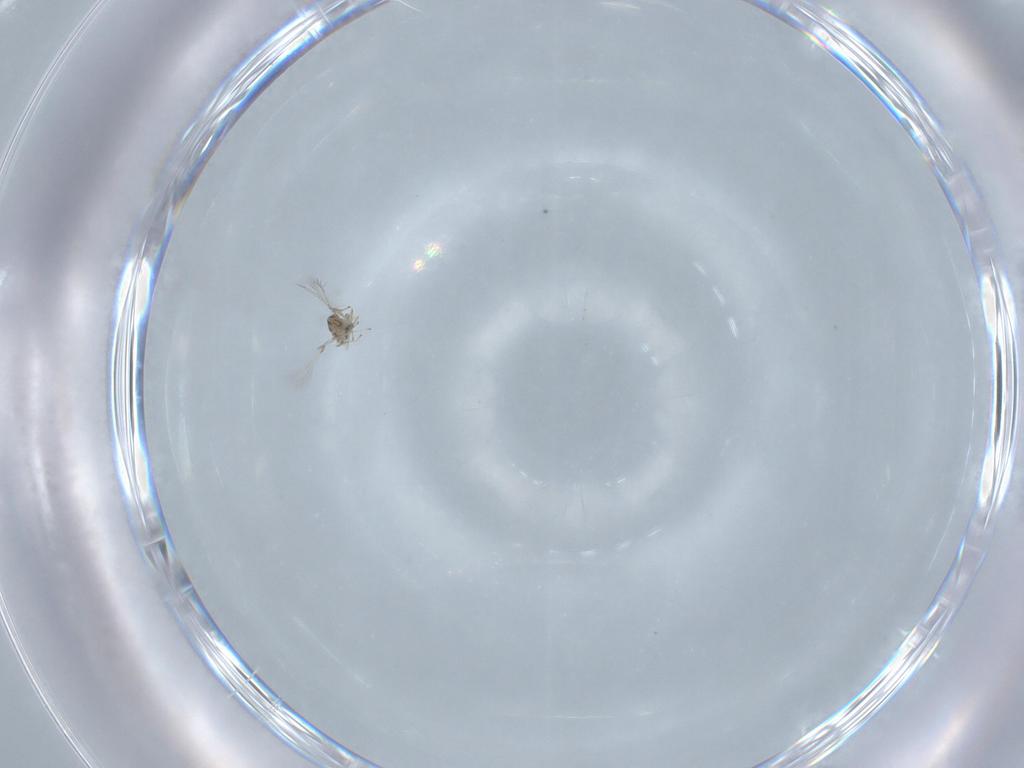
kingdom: Animalia
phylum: Arthropoda
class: Insecta
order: Hymenoptera
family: Mymaridae
